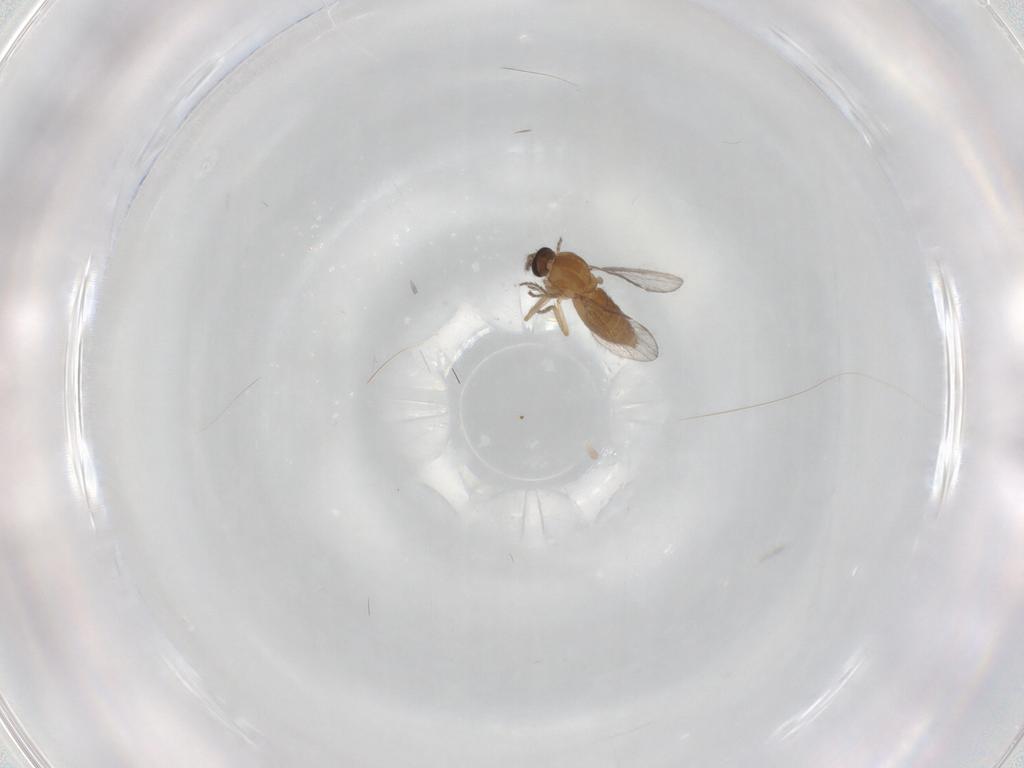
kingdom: Animalia
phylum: Arthropoda
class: Insecta
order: Diptera
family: Ceratopogonidae
